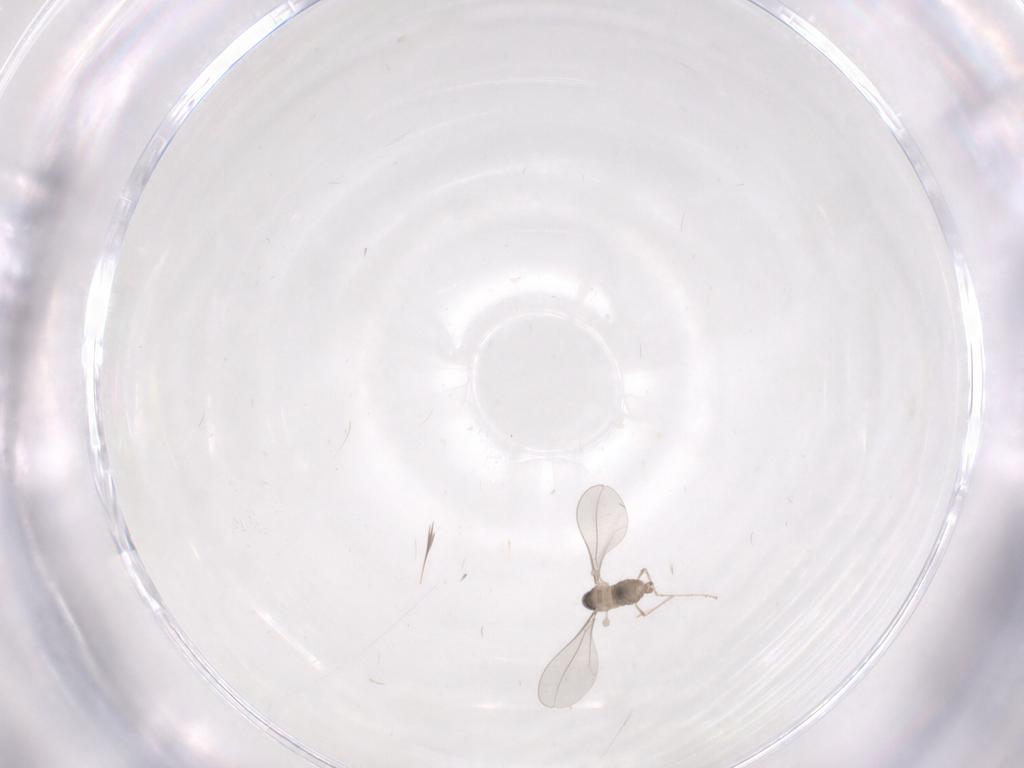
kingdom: Animalia
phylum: Arthropoda
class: Insecta
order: Diptera
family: Cecidomyiidae
